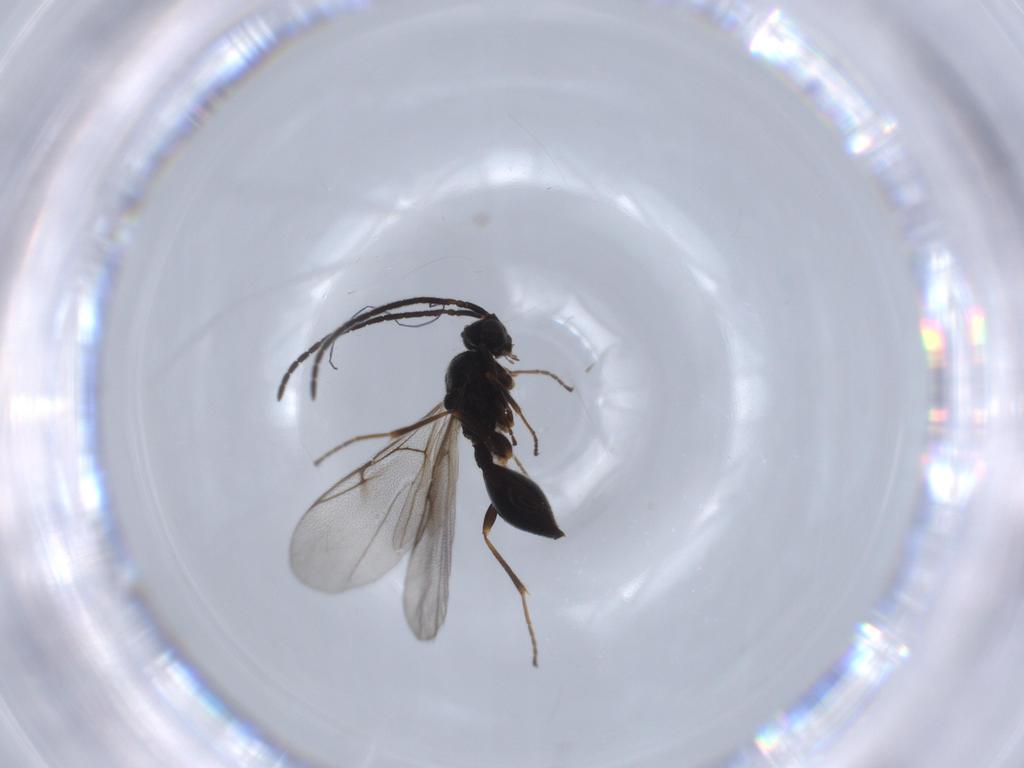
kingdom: Animalia
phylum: Arthropoda
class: Insecta
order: Hymenoptera
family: Diapriidae
